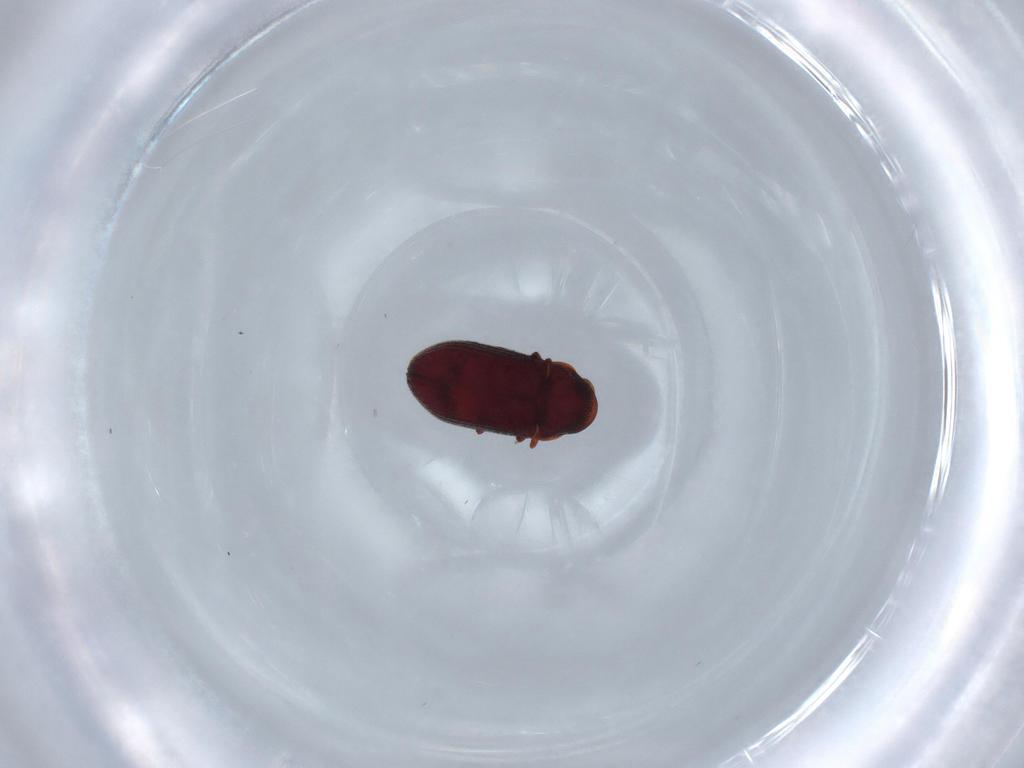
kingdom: Animalia
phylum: Arthropoda
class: Insecta
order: Coleoptera
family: Ptinidae
